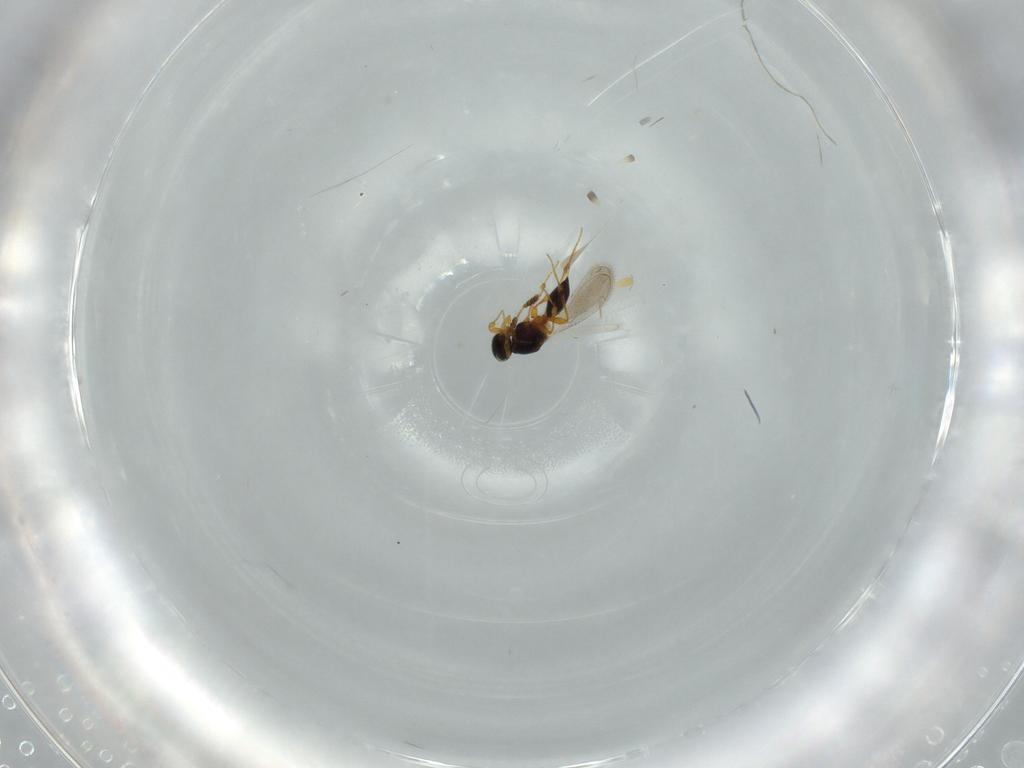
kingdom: Animalia
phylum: Arthropoda
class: Insecta
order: Hymenoptera
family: Platygastridae
